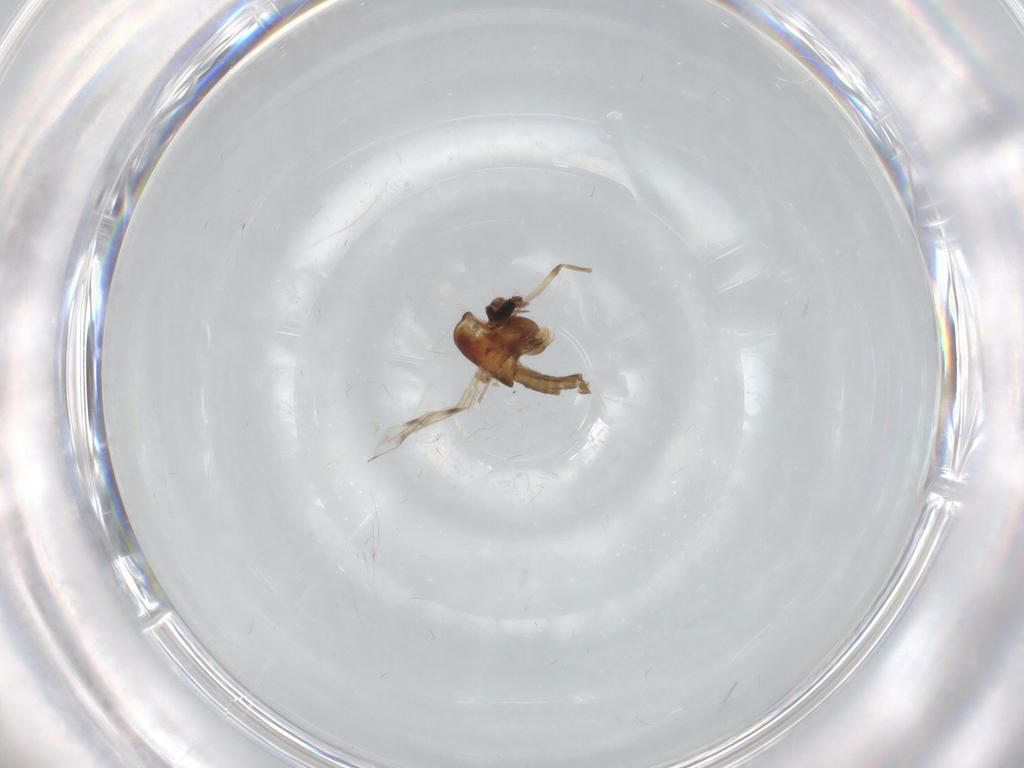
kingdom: Animalia
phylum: Arthropoda
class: Insecta
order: Diptera
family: Chironomidae
